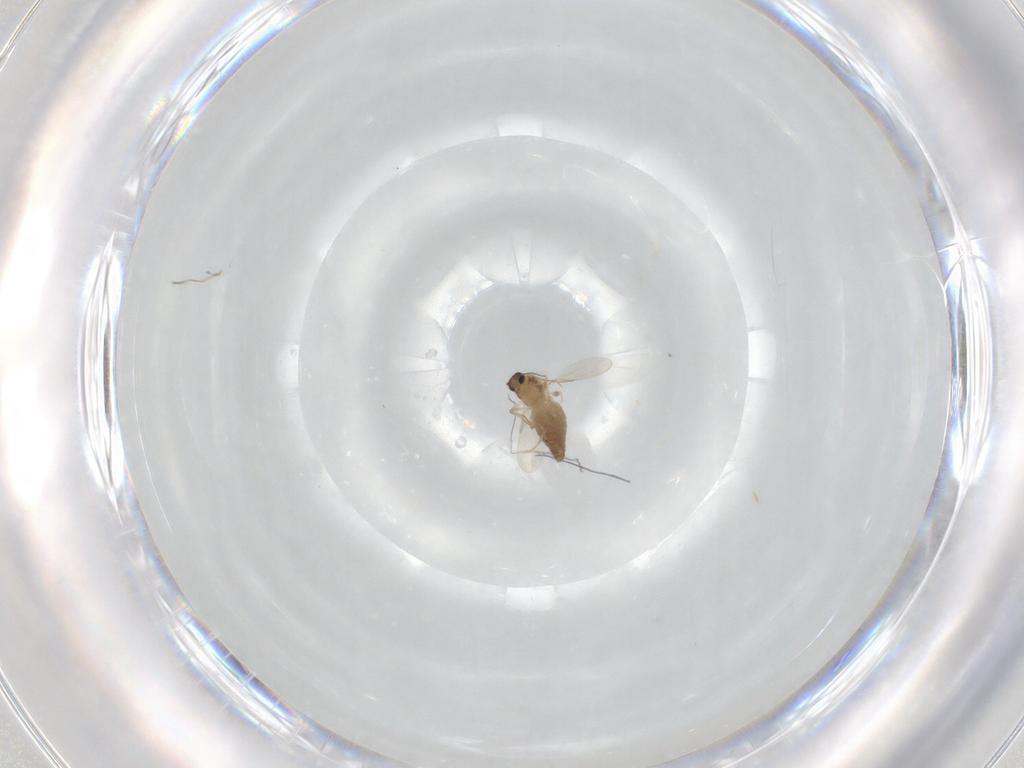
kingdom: Animalia
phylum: Arthropoda
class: Insecta
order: Diptera
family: Ceratopogonidae
